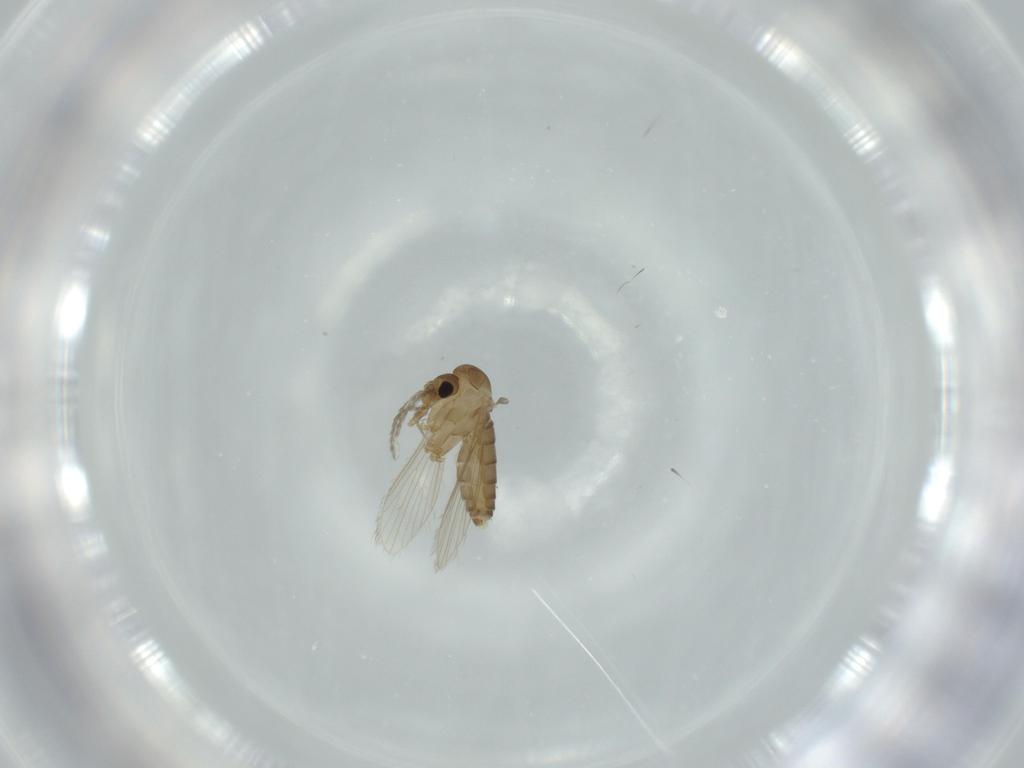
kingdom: Animalia
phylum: Arthropoda
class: Insecta
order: Diptera
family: Psychodidae
